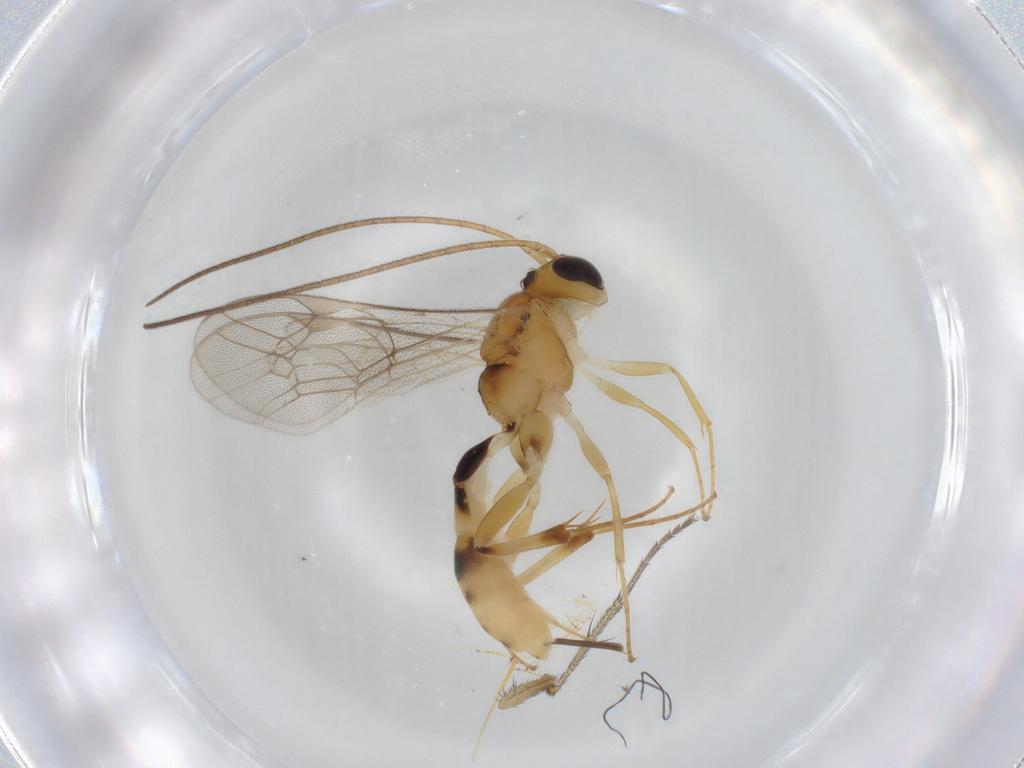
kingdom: Animalia
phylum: Arthropoda
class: Insecta
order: Hymenoptera
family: Ichneumonidae
